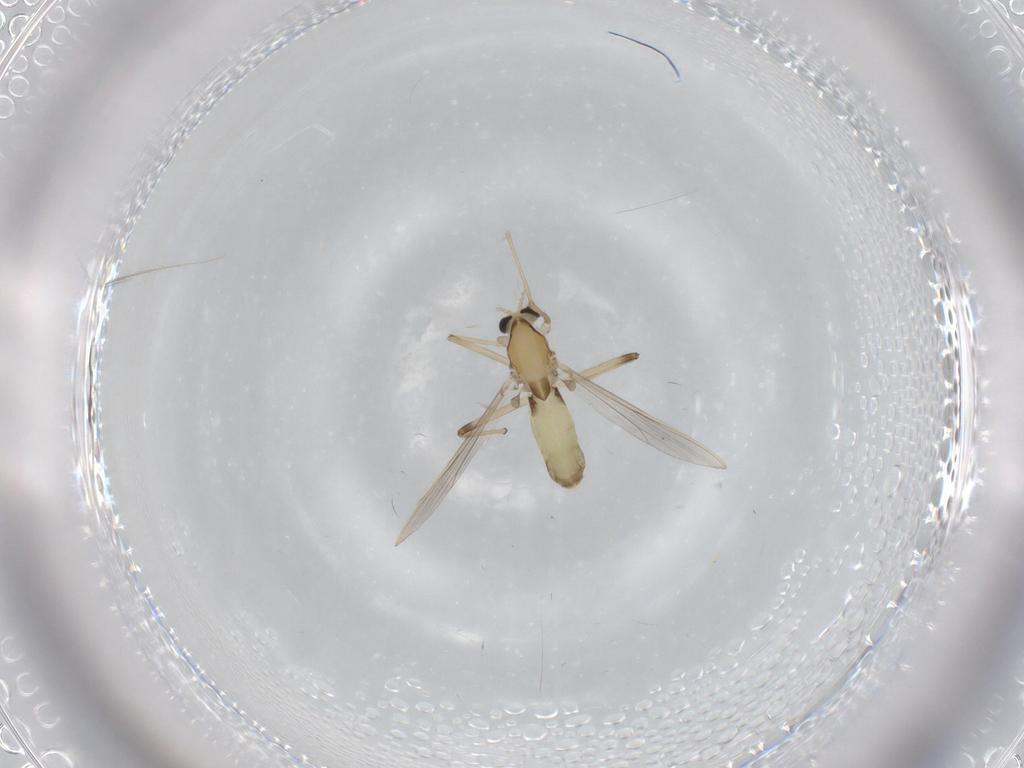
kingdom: Animalia
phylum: Arthropoda
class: Insecta
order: Diptera
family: Chironomidae
